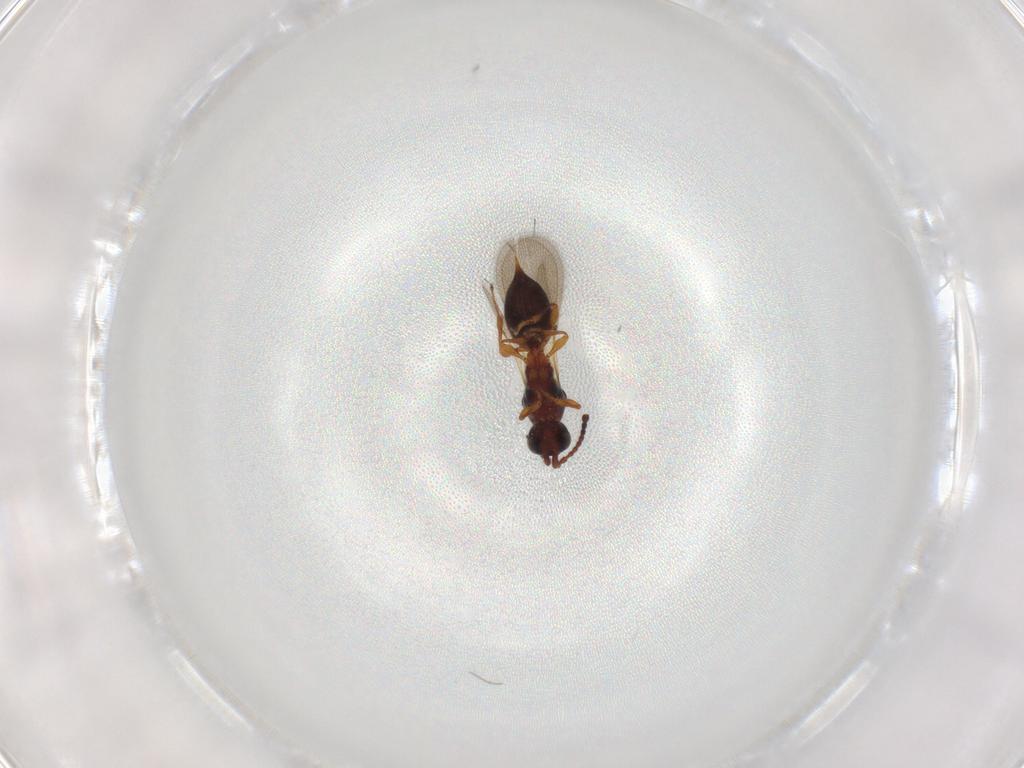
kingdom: Animalia
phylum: Arthropoda
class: Insecta
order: Hymenoptera
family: Diapriidae
